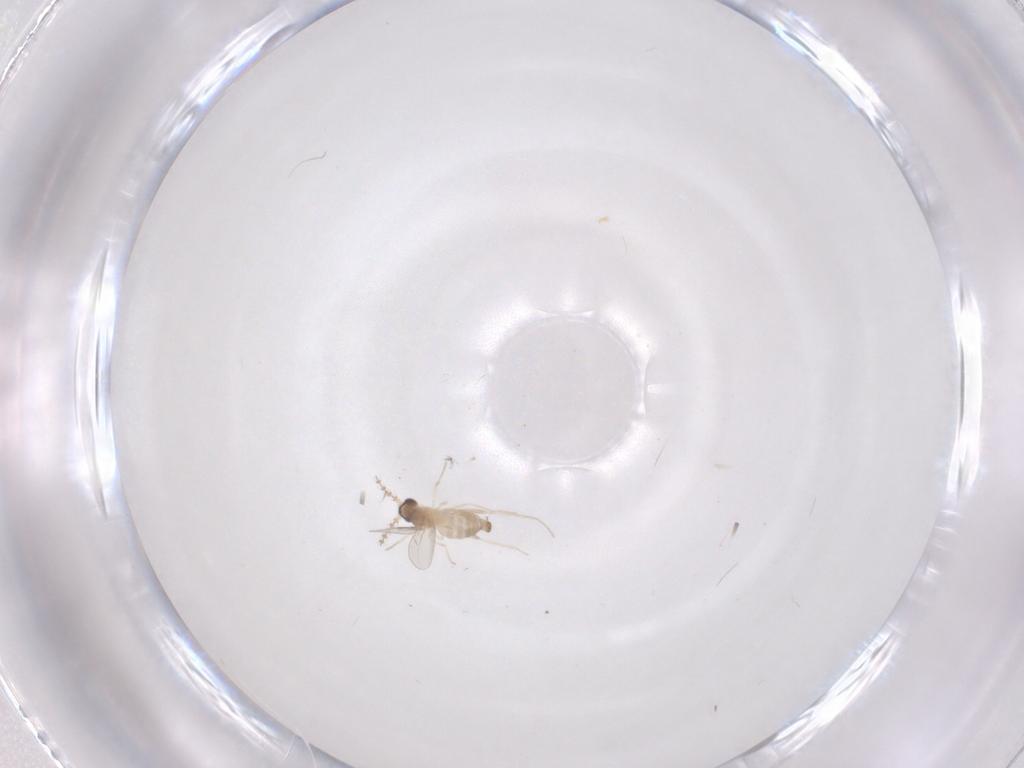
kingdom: Animalia
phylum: Arthropoda
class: Insecta
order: Diptera
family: Cecidomyiidae
